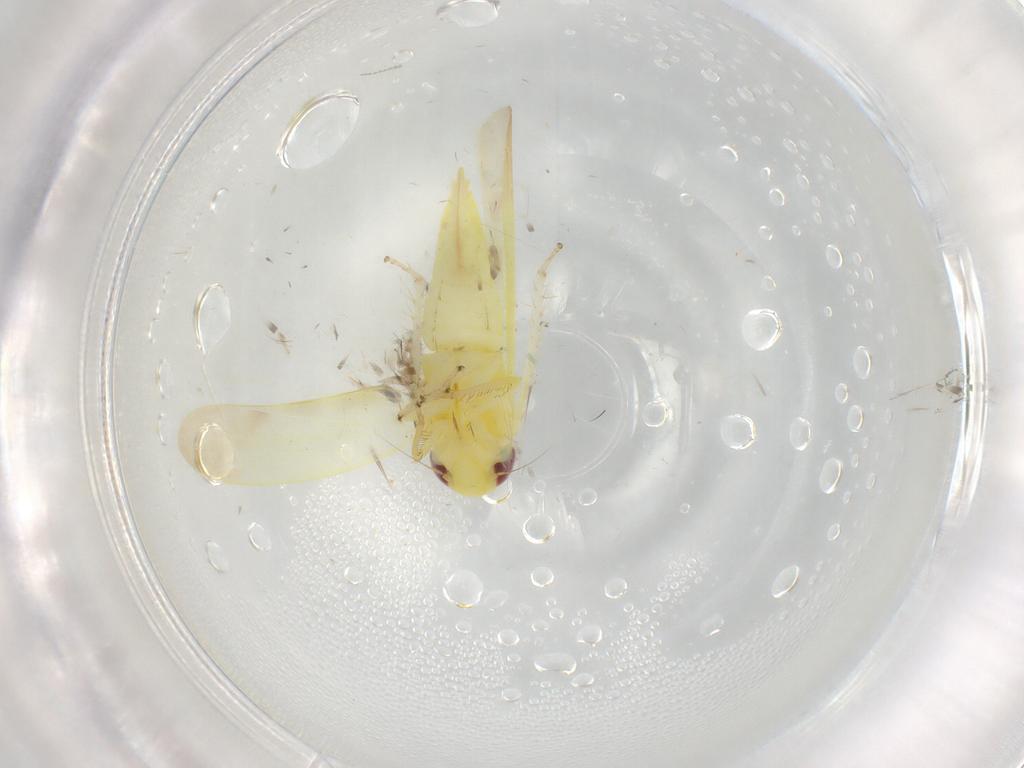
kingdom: Animalia
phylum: Arthropoda
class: Insecta
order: Hemiptera
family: Cicadellidae
